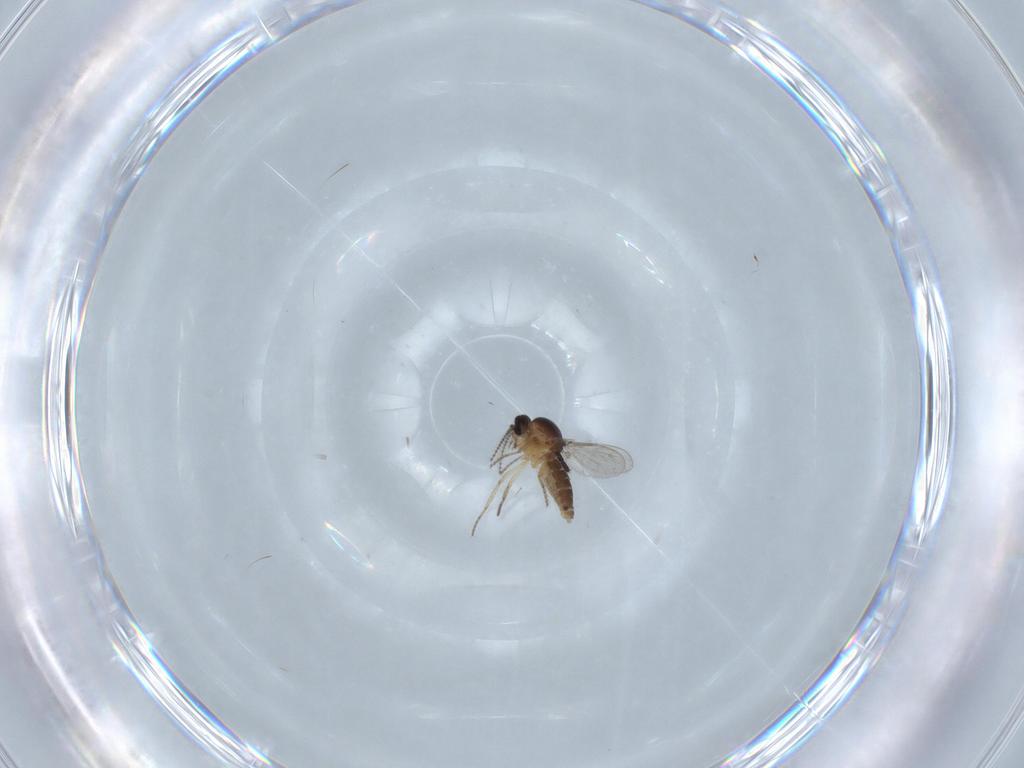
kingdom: Animalia
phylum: Arthropoda
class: Insecta
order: Diptera
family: Ceratopogonidae
